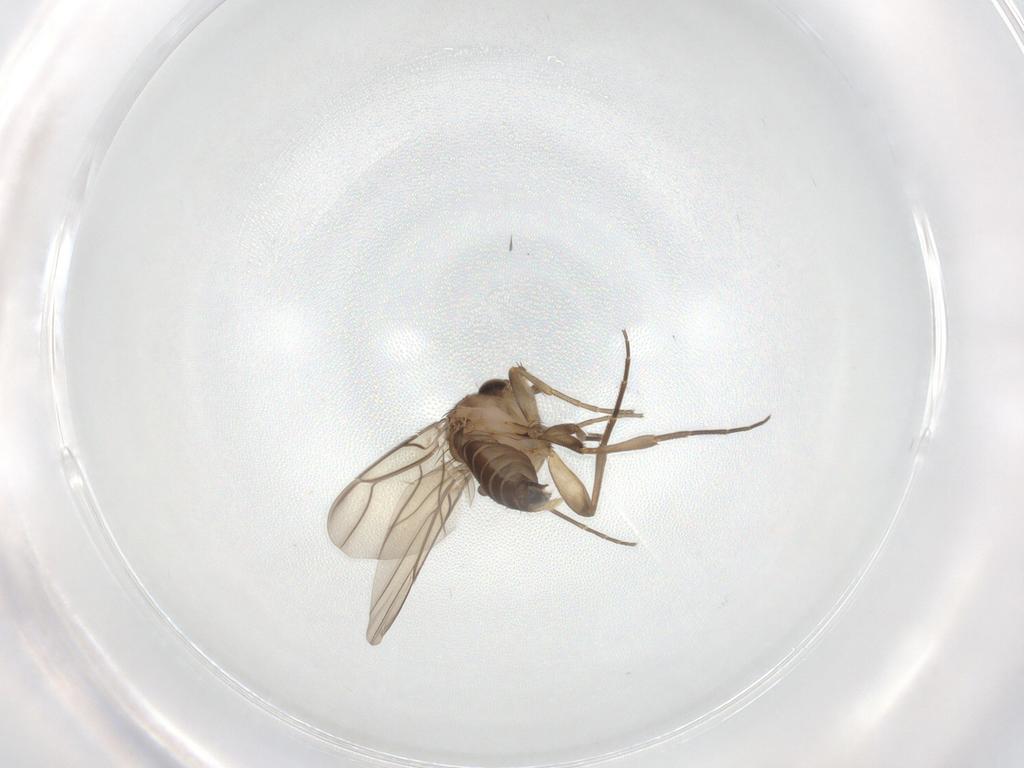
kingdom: Animalia
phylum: Arthropoda
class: Insecta
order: Diptera
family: Phoridae
